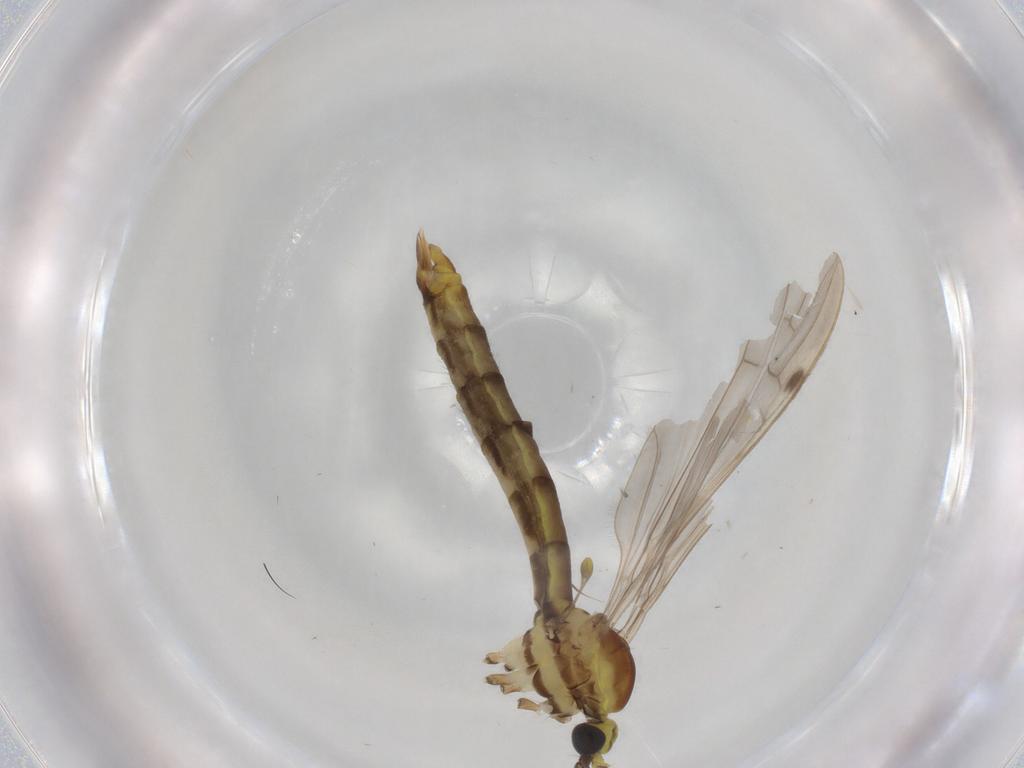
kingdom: Animalia
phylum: Arthropoda
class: Insecta
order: Diptera
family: Limoniidae
